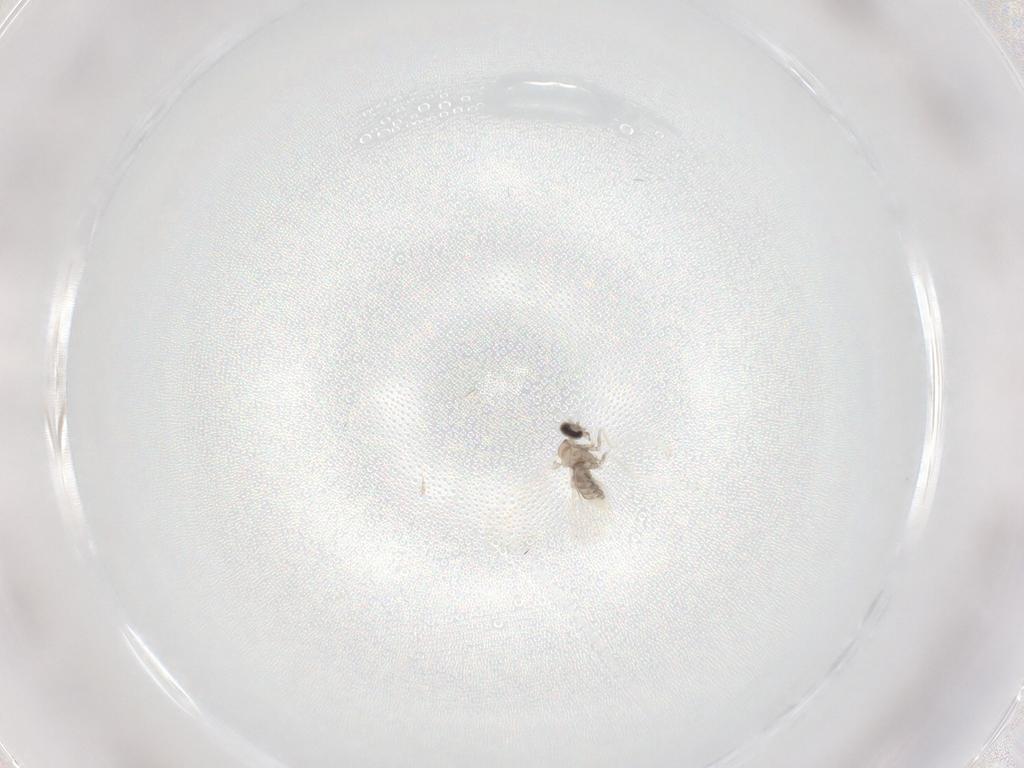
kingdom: Animalia
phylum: Arthropoda
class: Insecta
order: Diptera
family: Cecidomyiidae
